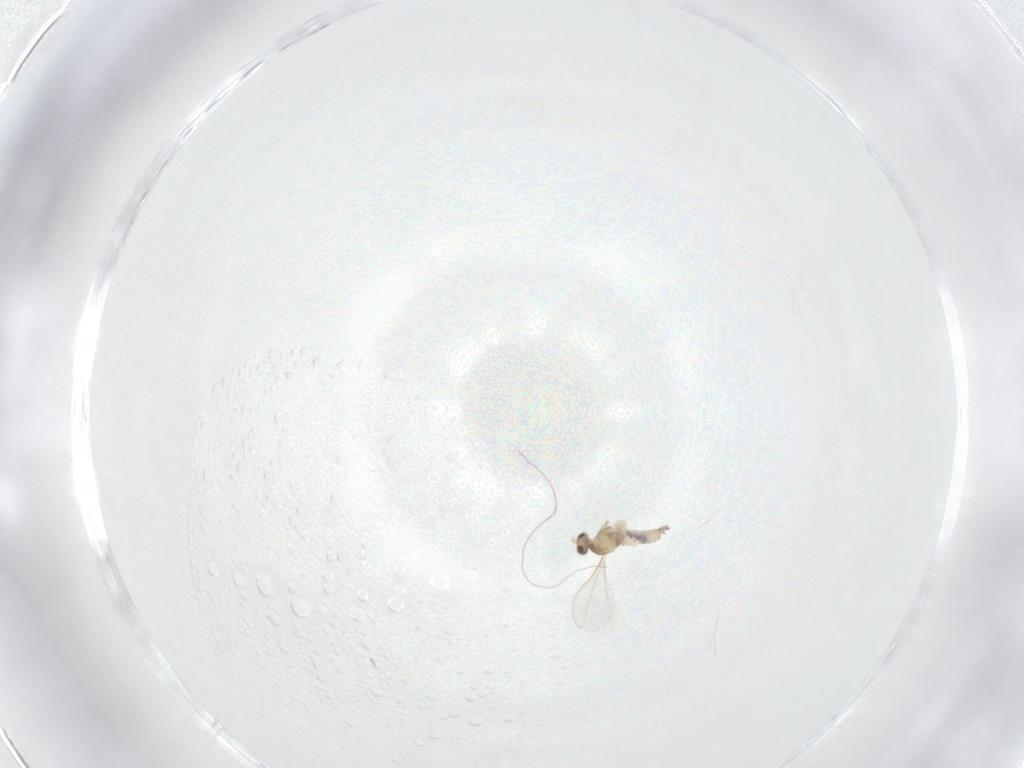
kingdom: Animalia
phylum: Arthropoda
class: Insecta
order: Diptera
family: Cecidomyiidae
